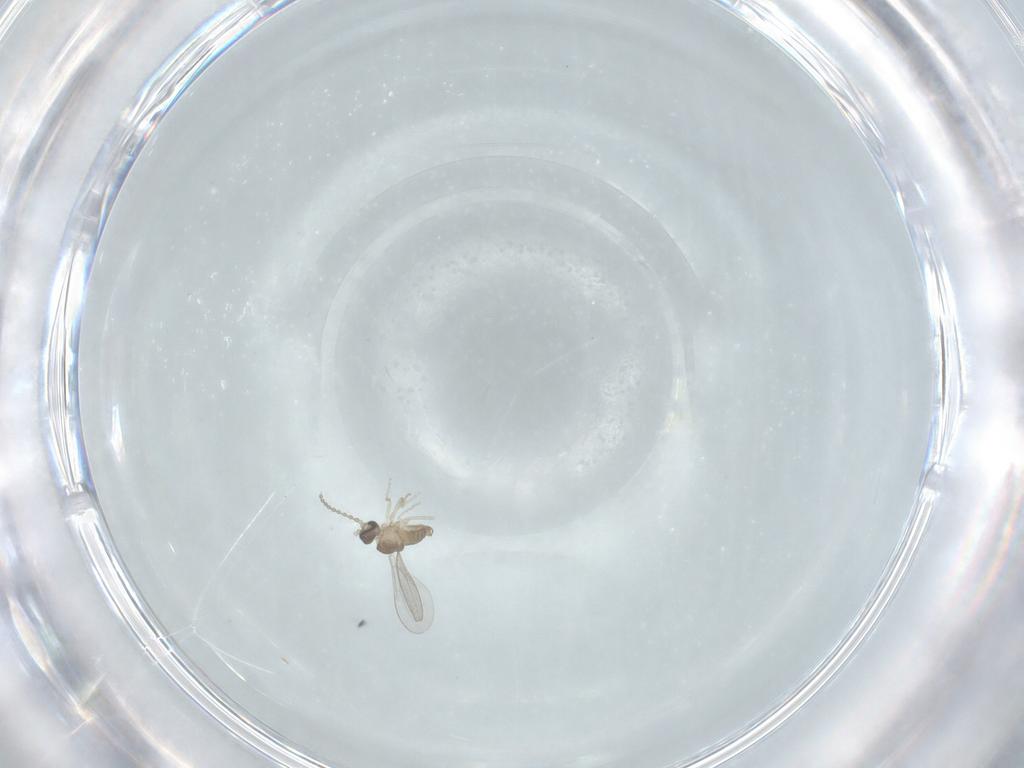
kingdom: Animalia
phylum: Arthropoda
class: Insecta
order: Diptera
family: Cecidomyiidae
